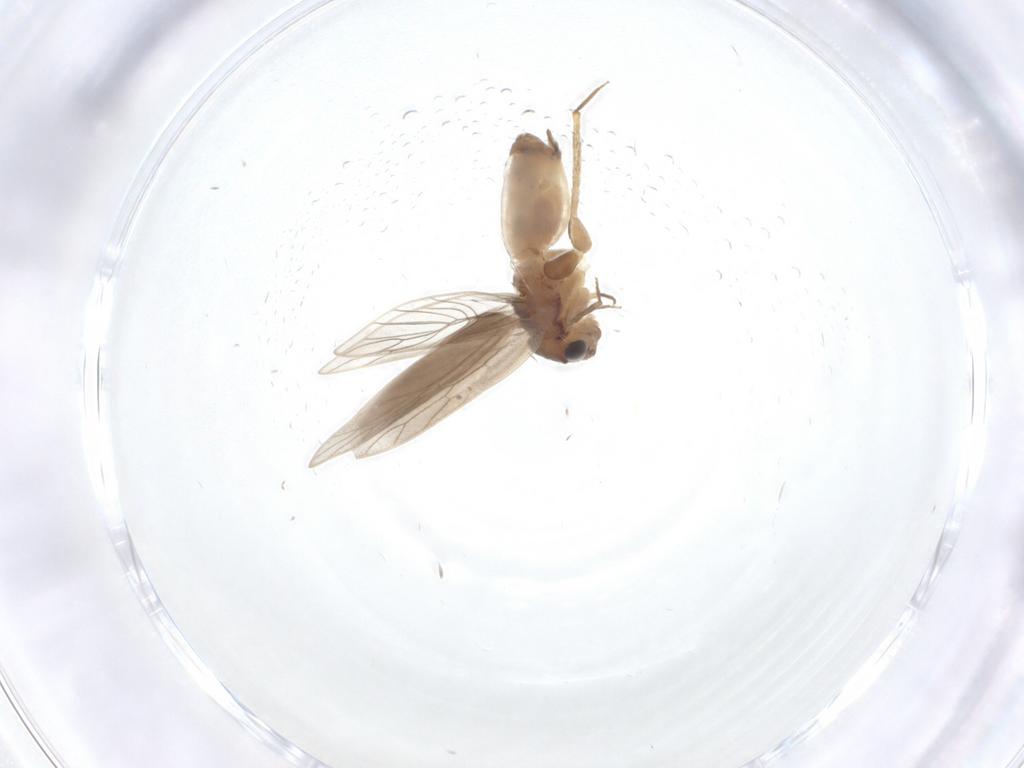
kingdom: Animalia
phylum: Arthropoda
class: Insecta
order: Psocodea
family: Lepidopsocidae
